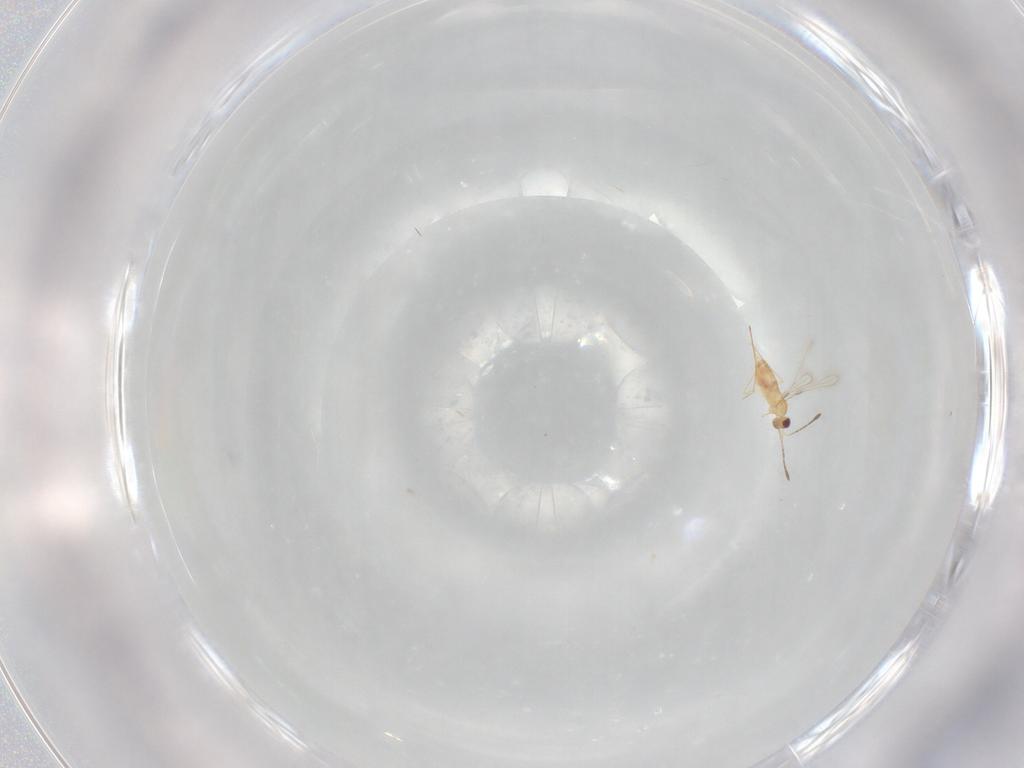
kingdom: Animalia
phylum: Arthropoda
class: Insecta
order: Hymenoptera
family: Mymaridae
